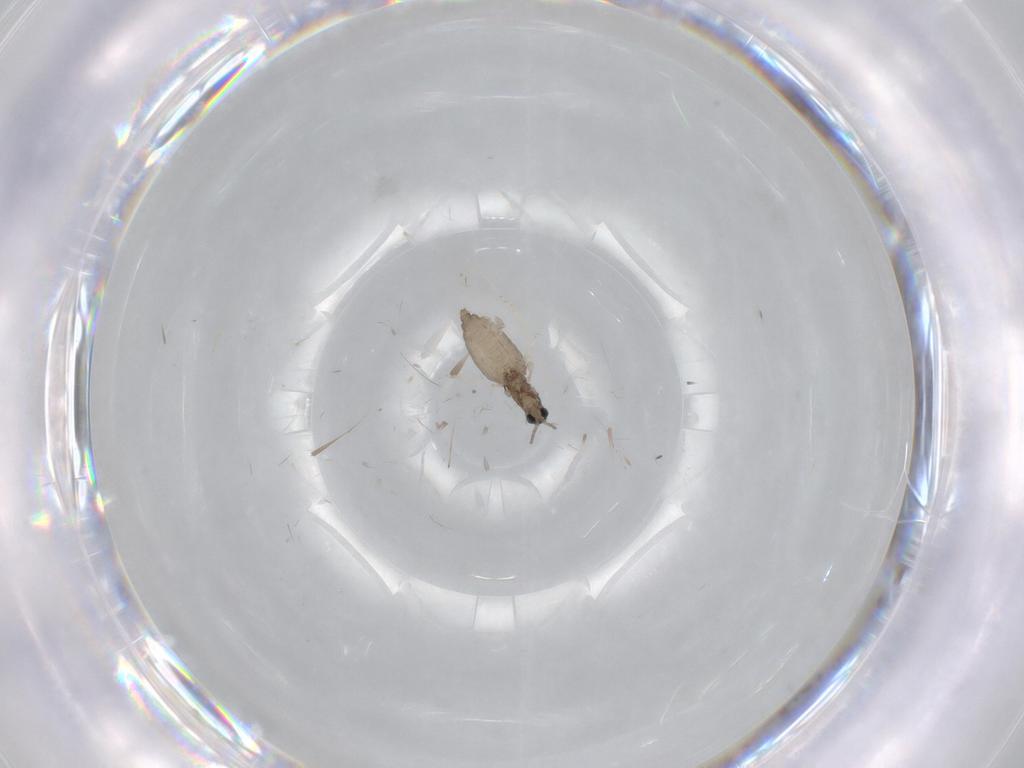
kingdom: Animalia
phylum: Arthropoda
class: Insecta
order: Diptera
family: Cecidomyiidae
